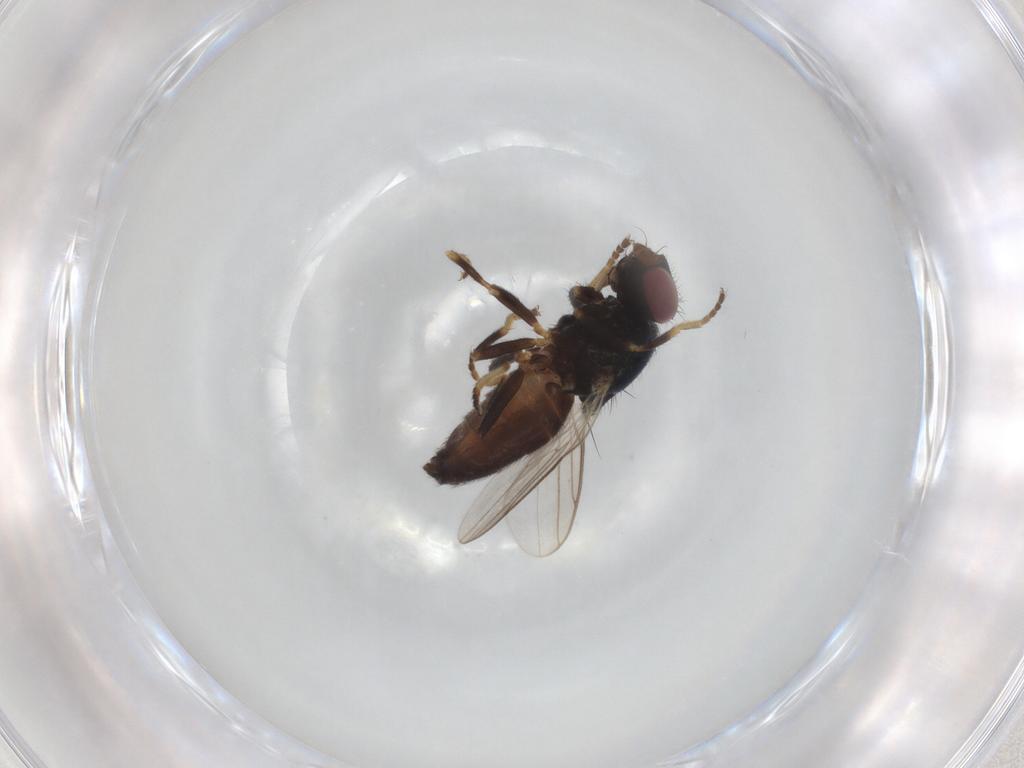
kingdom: Animalia
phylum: Arthropoda
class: Insecta
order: Diptera
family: Chloropidae
